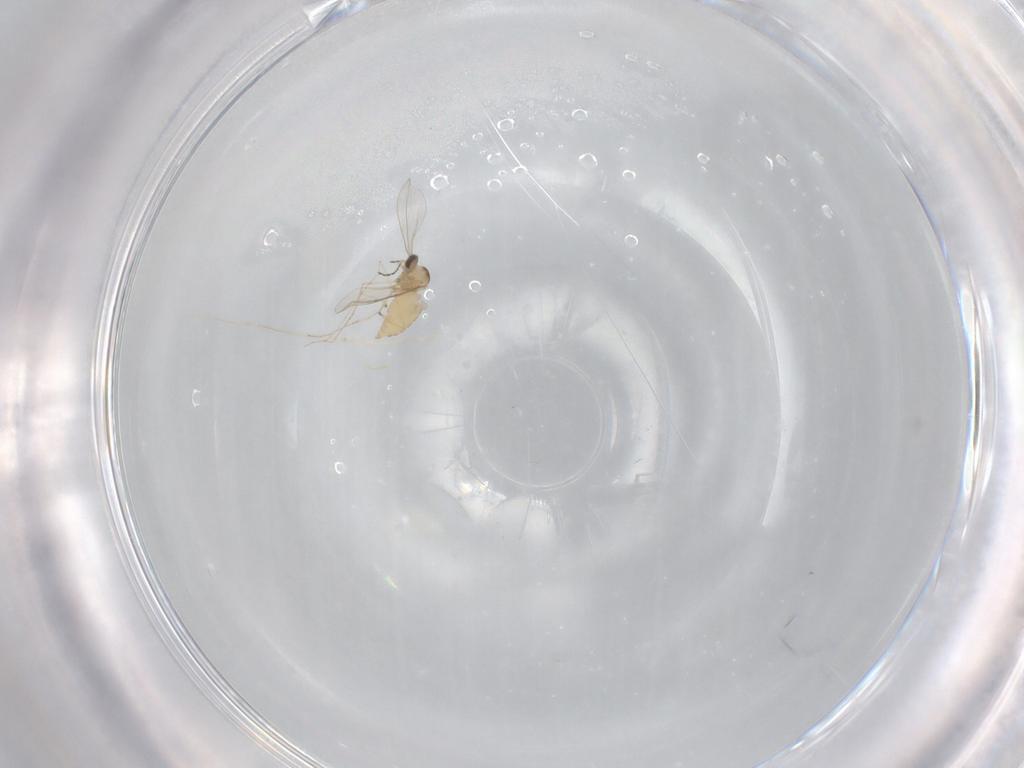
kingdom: Animalia
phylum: Arthropoda
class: Insecta
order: Diptera
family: Cecidomyiidae
